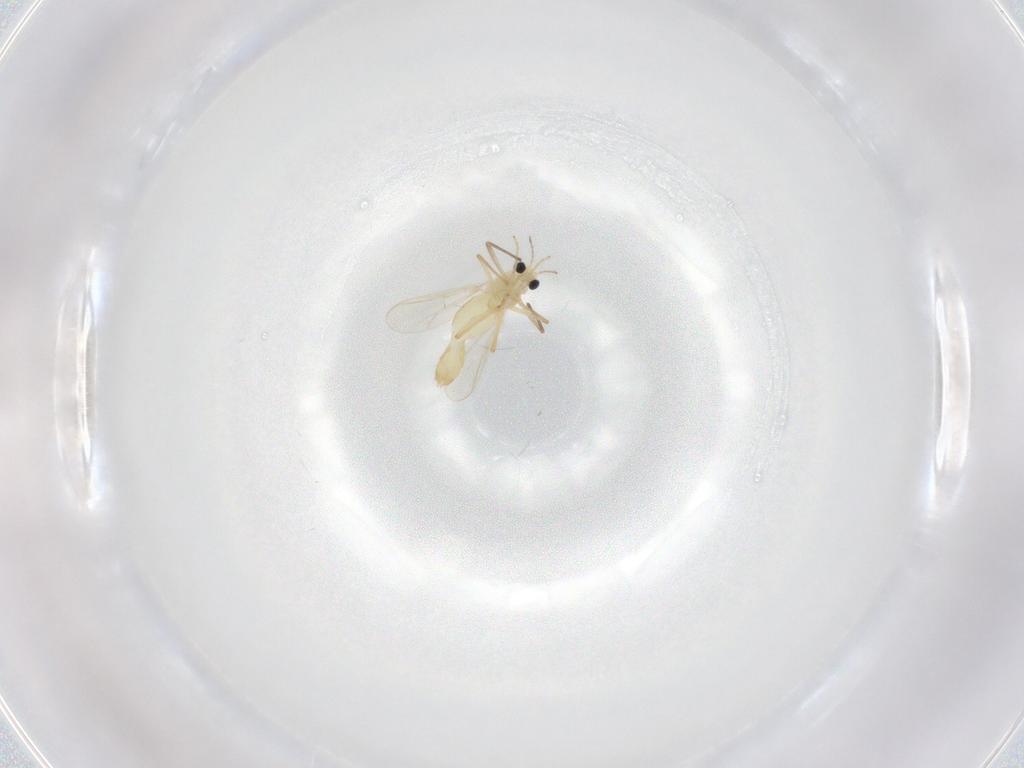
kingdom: Animalia
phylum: Arthropoda
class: Insecta
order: Diptera
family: Chironomidae
